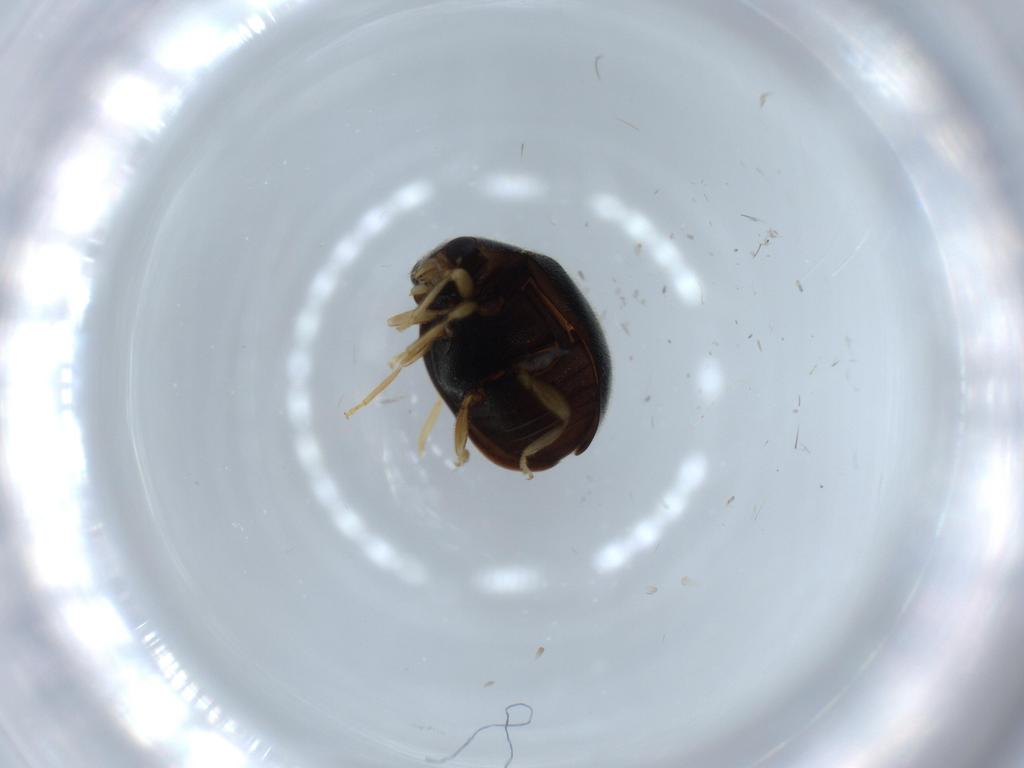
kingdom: Animalia
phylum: Arthropoda
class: Insecta
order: Coleoptera
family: Coccinellidae
